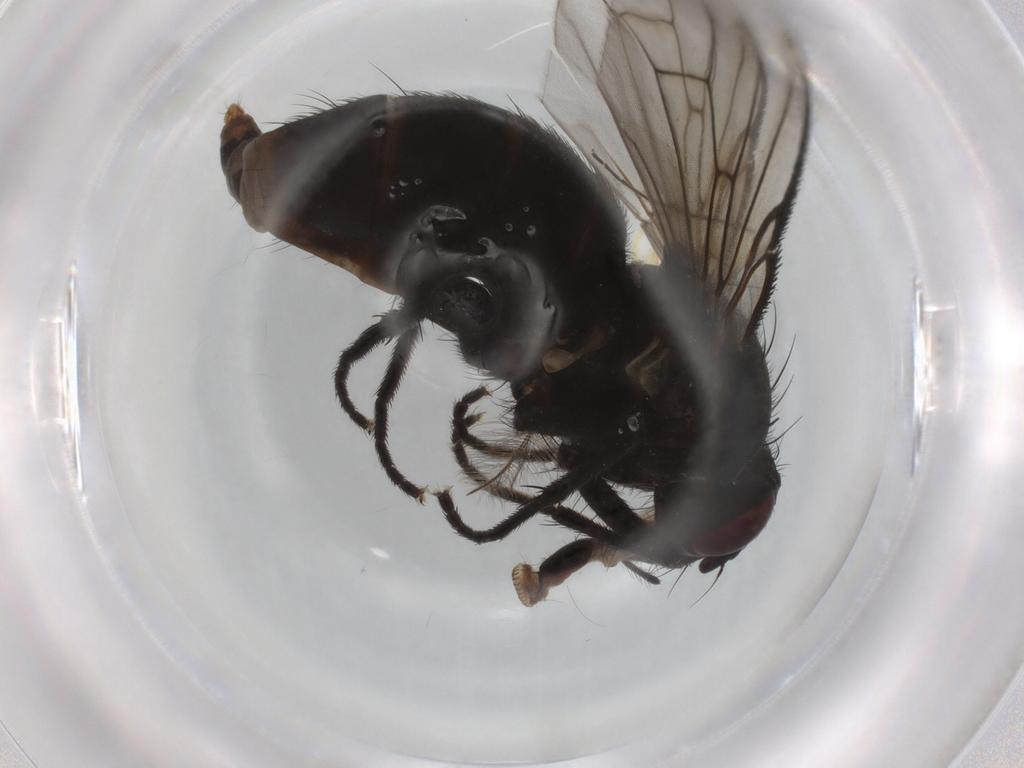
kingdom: Animalia
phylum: Arthropoda
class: Insecta
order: Diptera
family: Muscidae
